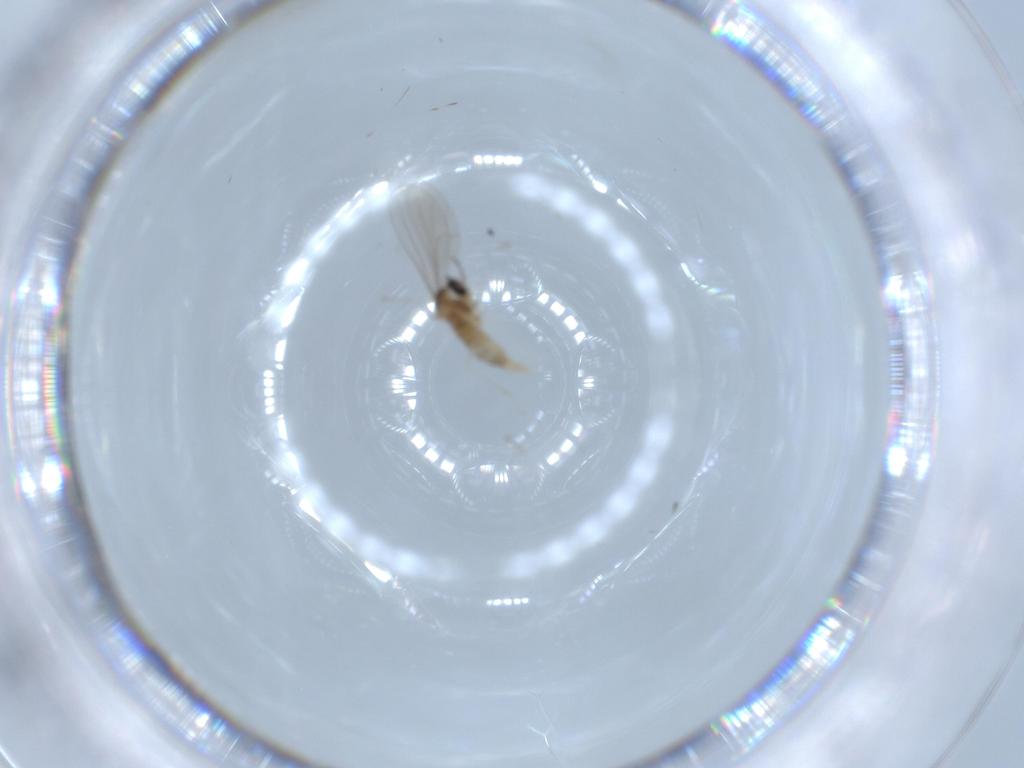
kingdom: Animalia
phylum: Arthropoda
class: Insecta
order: Diptera
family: Cecidomyiidae
